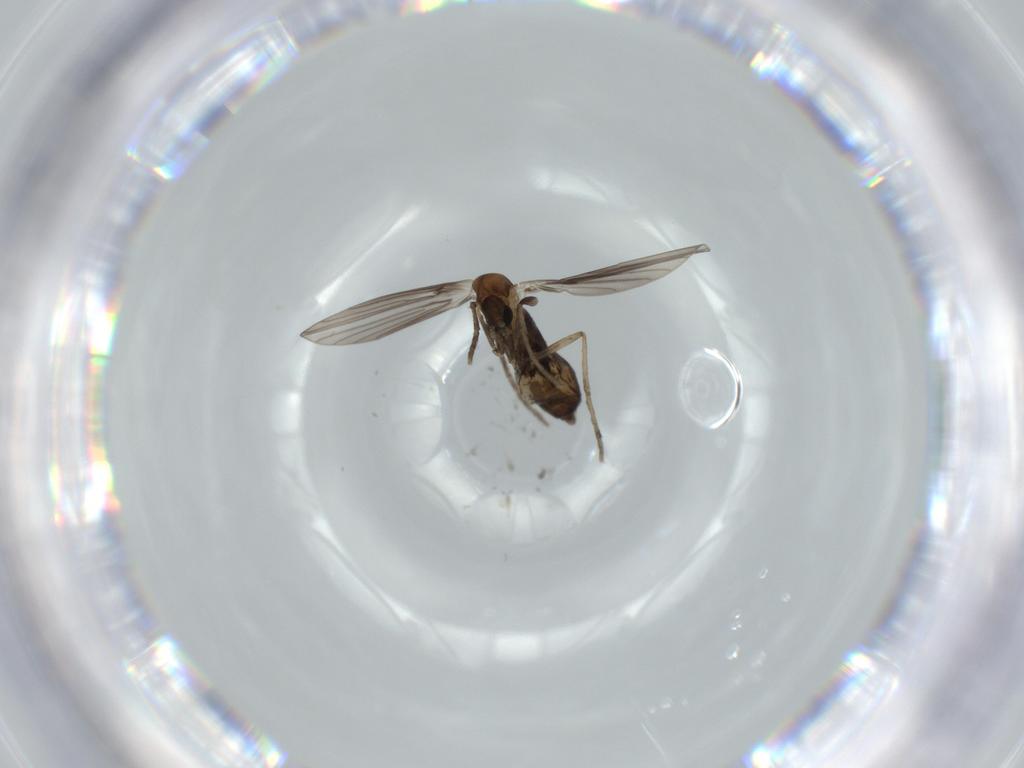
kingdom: Animalia
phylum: Arthropoda
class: Insecta
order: Diptera
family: Psychodidae
